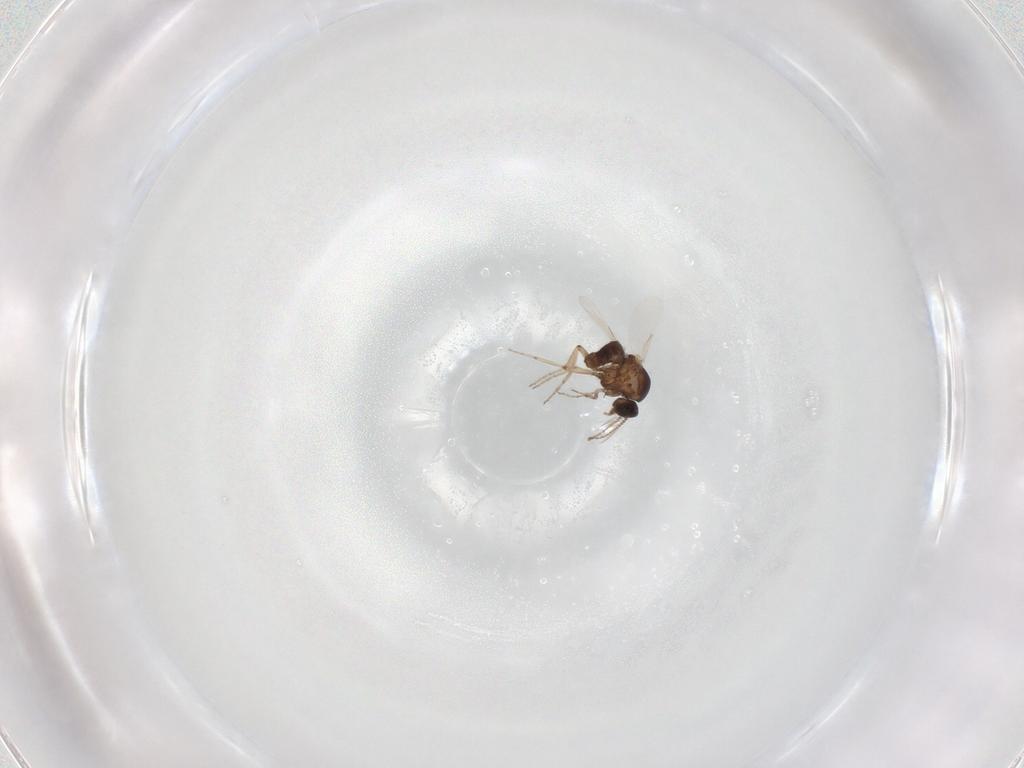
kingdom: Animalia
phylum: Arthropoda
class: Insecta
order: Diptera
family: Ceratopogonidae
